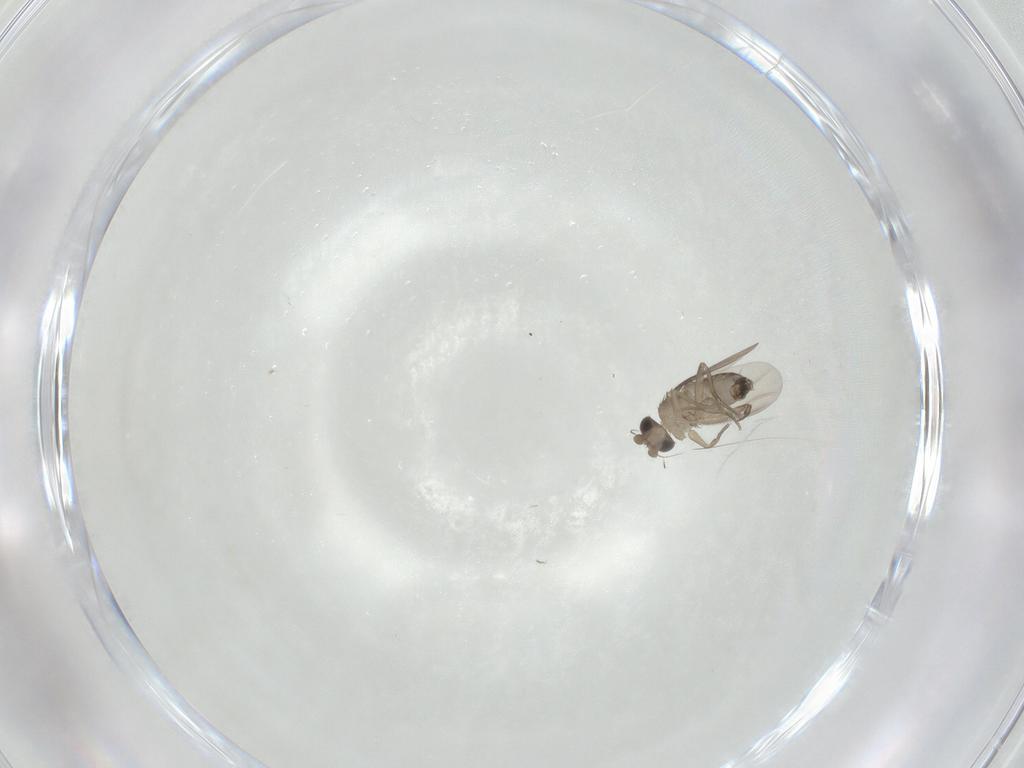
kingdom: Animalia
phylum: Arthropoda
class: Insecta
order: Diptera
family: Phoridae
